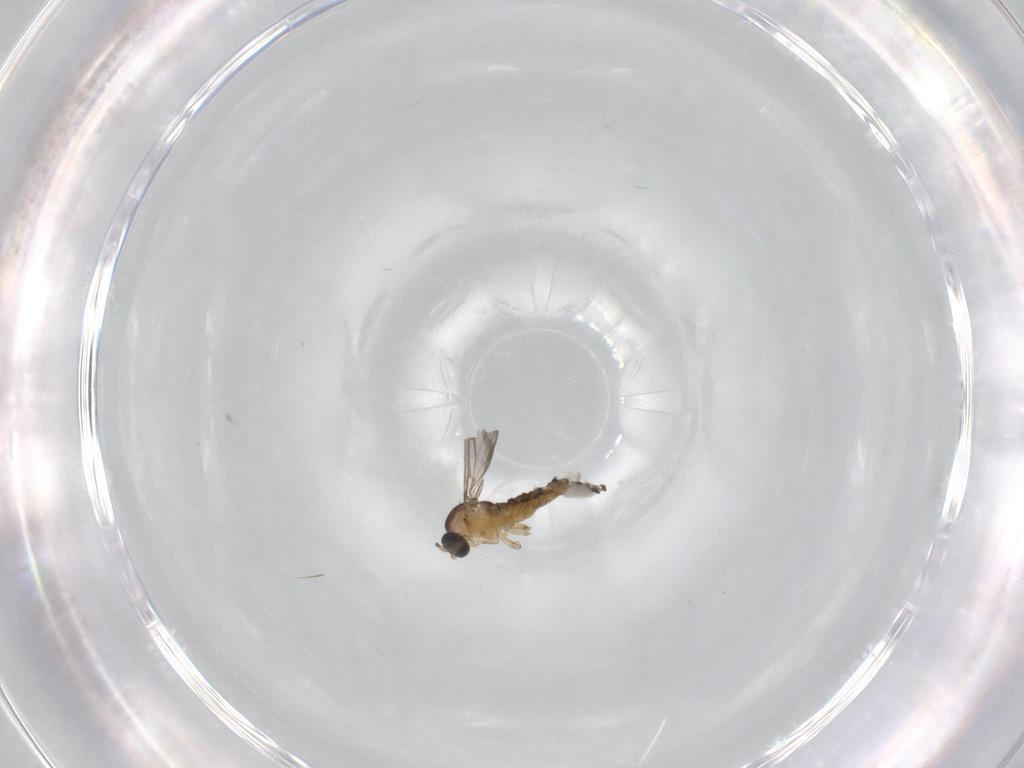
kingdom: Animalia
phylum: Arthropoda
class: Insecta
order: Diptera
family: Sciaridae
